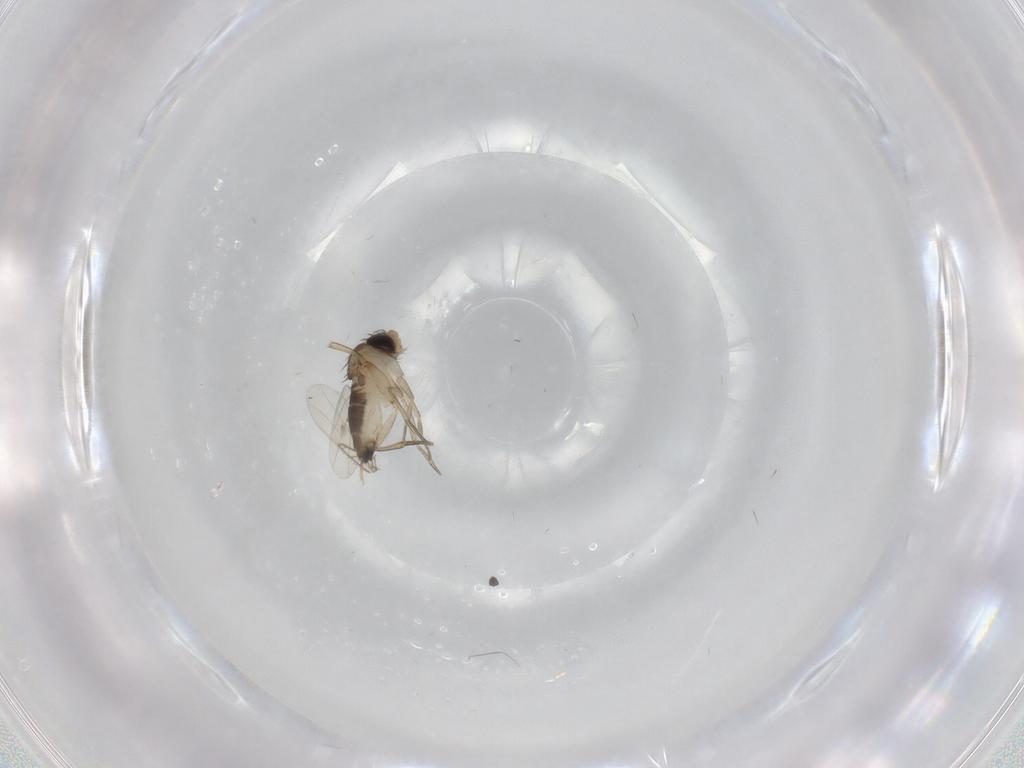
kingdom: Animalia
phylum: Arthropoda
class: Insecta
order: Diptera
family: Phoridae
